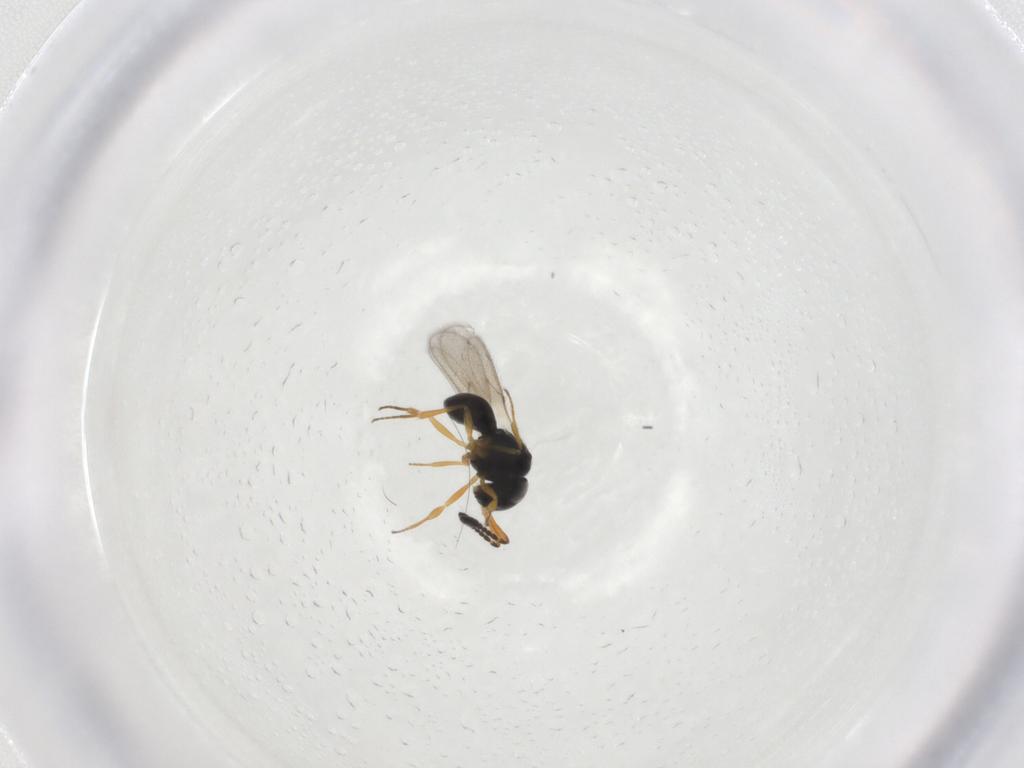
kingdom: Animalia
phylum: Arthropoda
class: Insecta
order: Hymenoptera
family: Scelionidae
